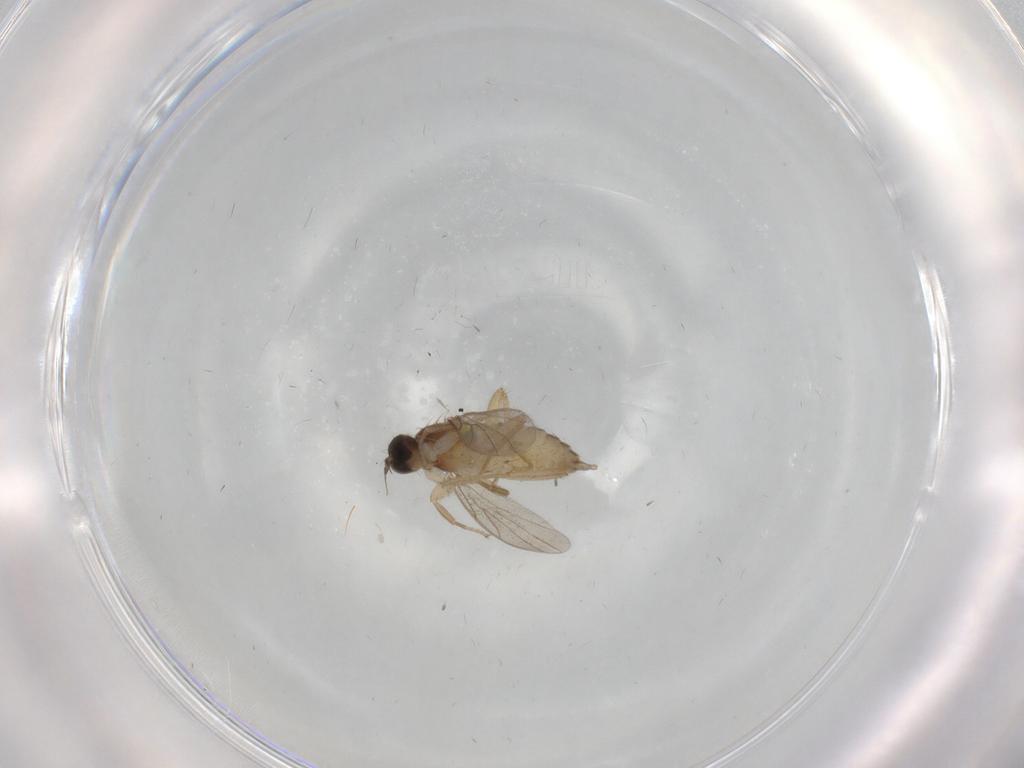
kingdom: Animalia
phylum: Arthropoda
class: Insecta
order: Diptera
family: Hybotidae
